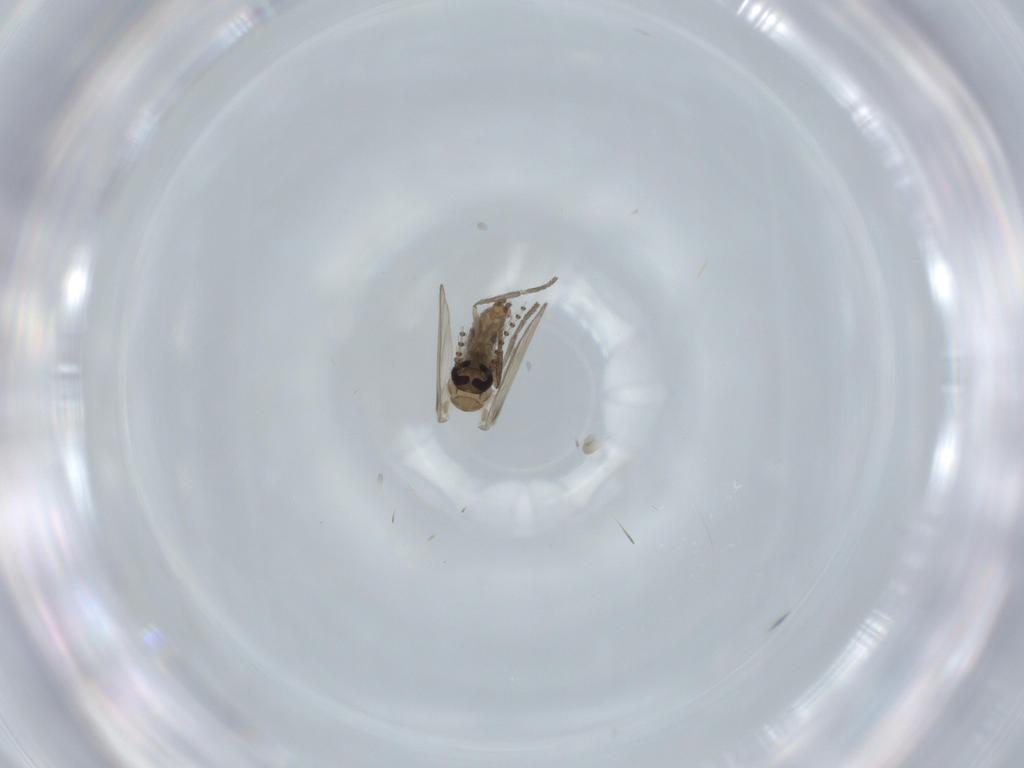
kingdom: Animalia
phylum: Arthropoda
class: Insecta
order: Diptera
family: Psychodidae
